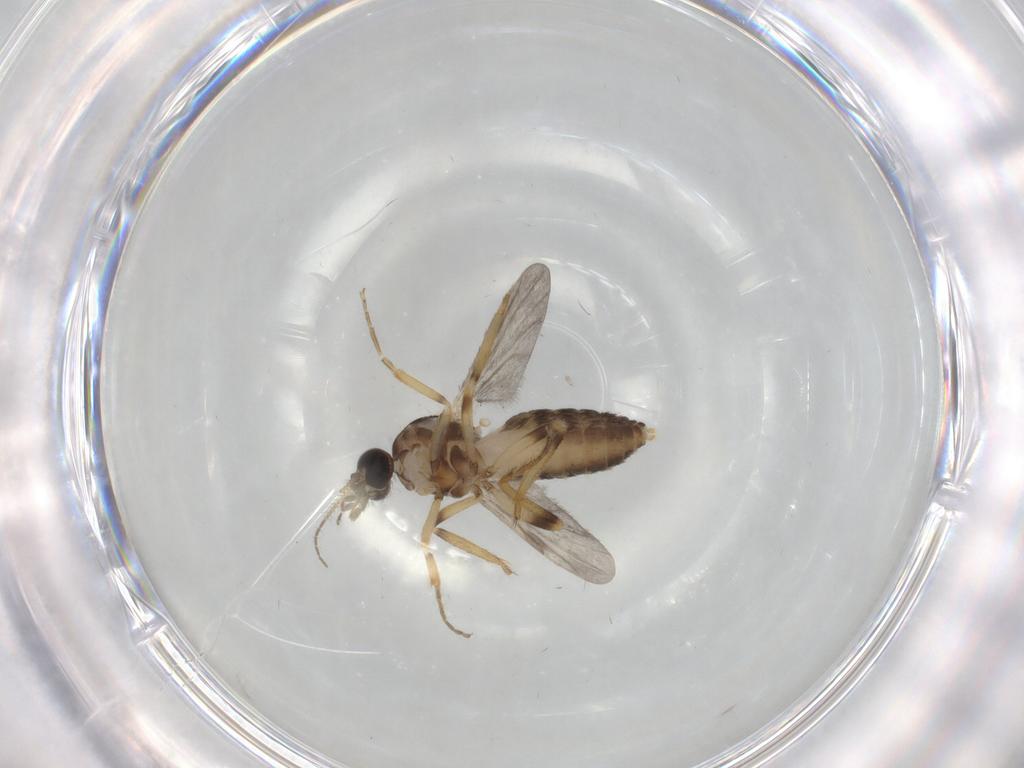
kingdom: Animalia
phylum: Arthropoda
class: Insecta
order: Diptera
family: Ceratopogonidae
